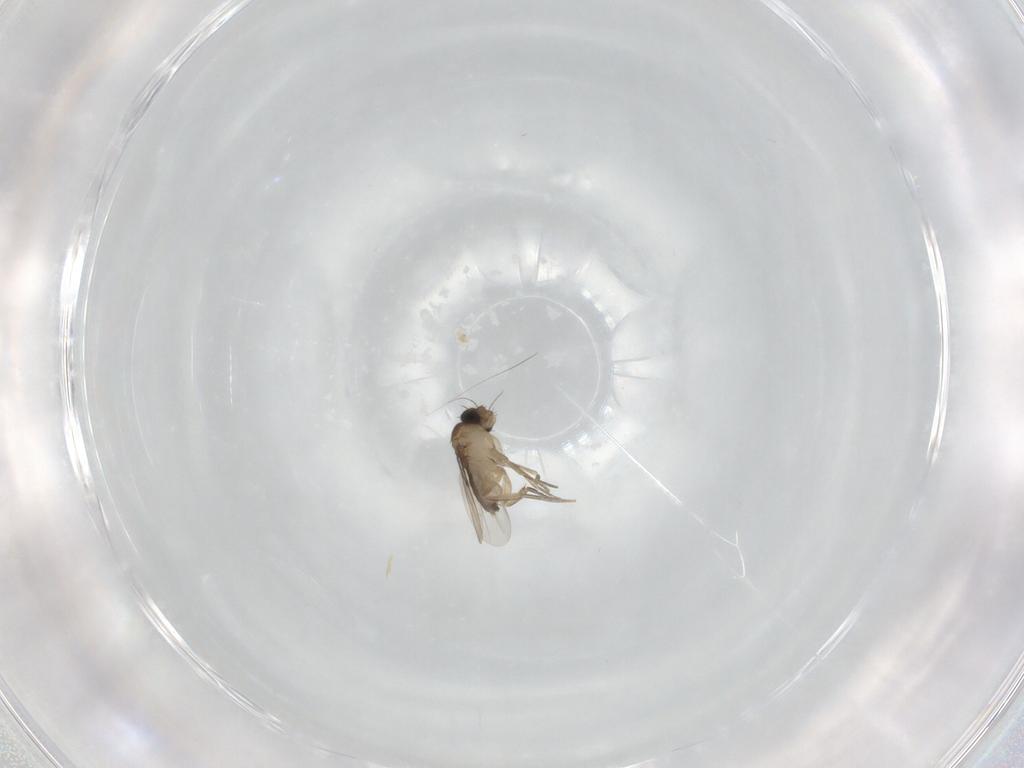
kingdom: Animalia
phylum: Arthropoda
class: Insecta
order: Diptera
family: Phoridae
